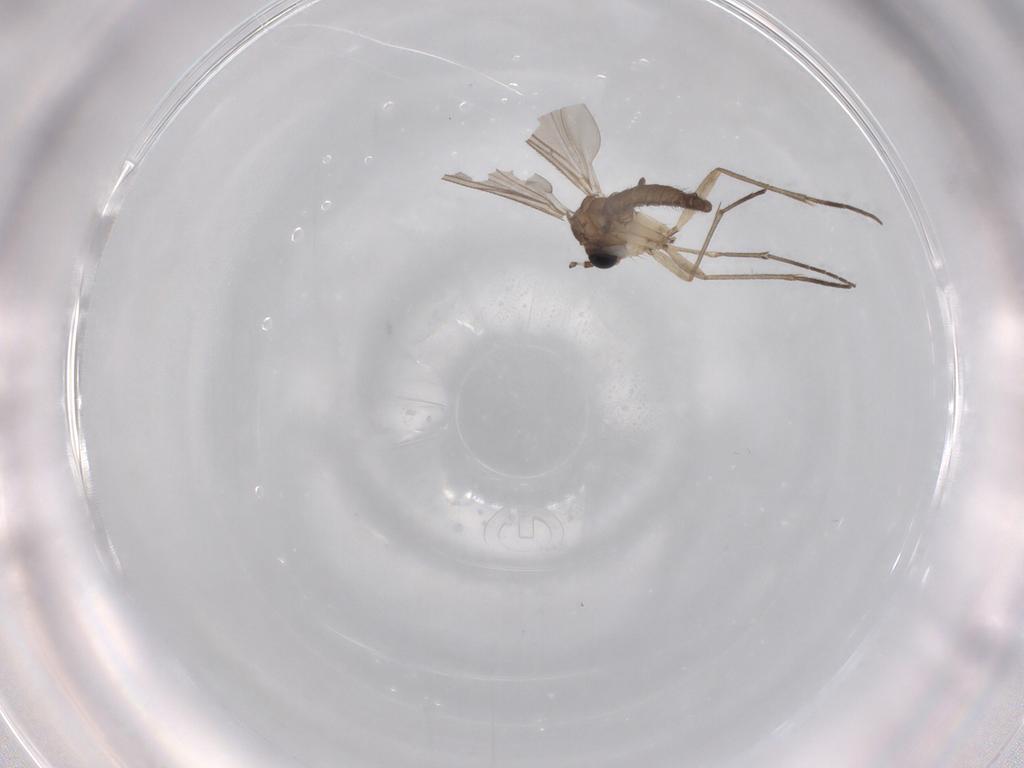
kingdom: Animalia
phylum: Arthropoda
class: Insecta
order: Diptera
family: Sciaridae
